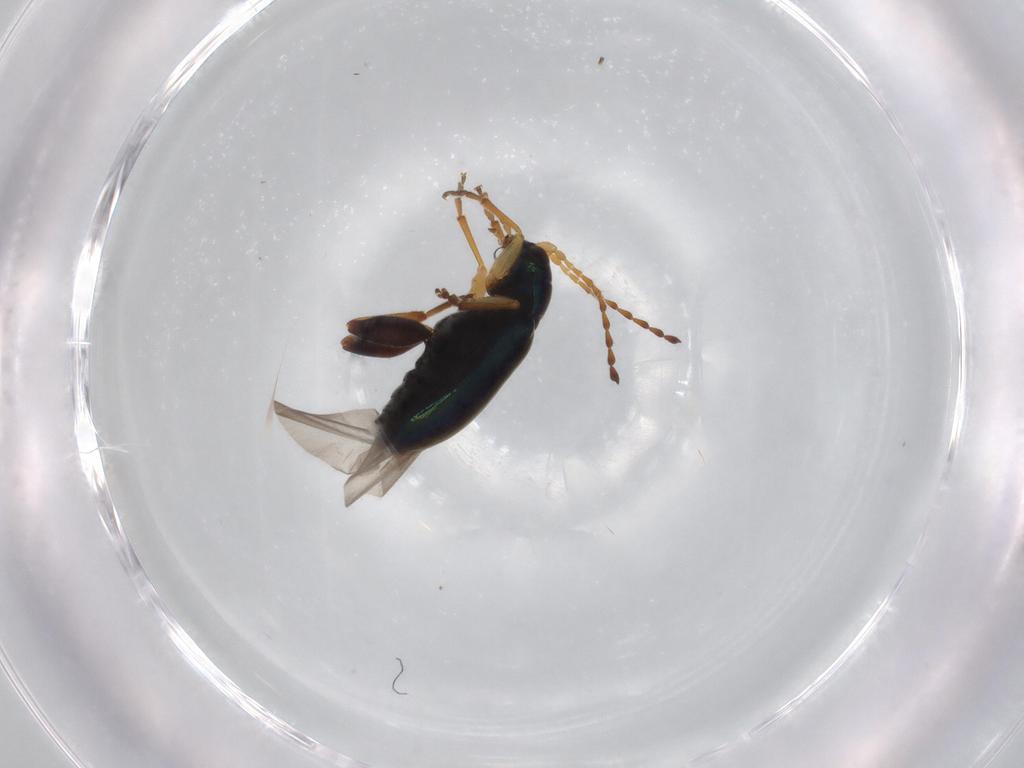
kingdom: Animalia
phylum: Arthropoda
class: Insecta
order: Coleoptera
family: Chrysomelidae
